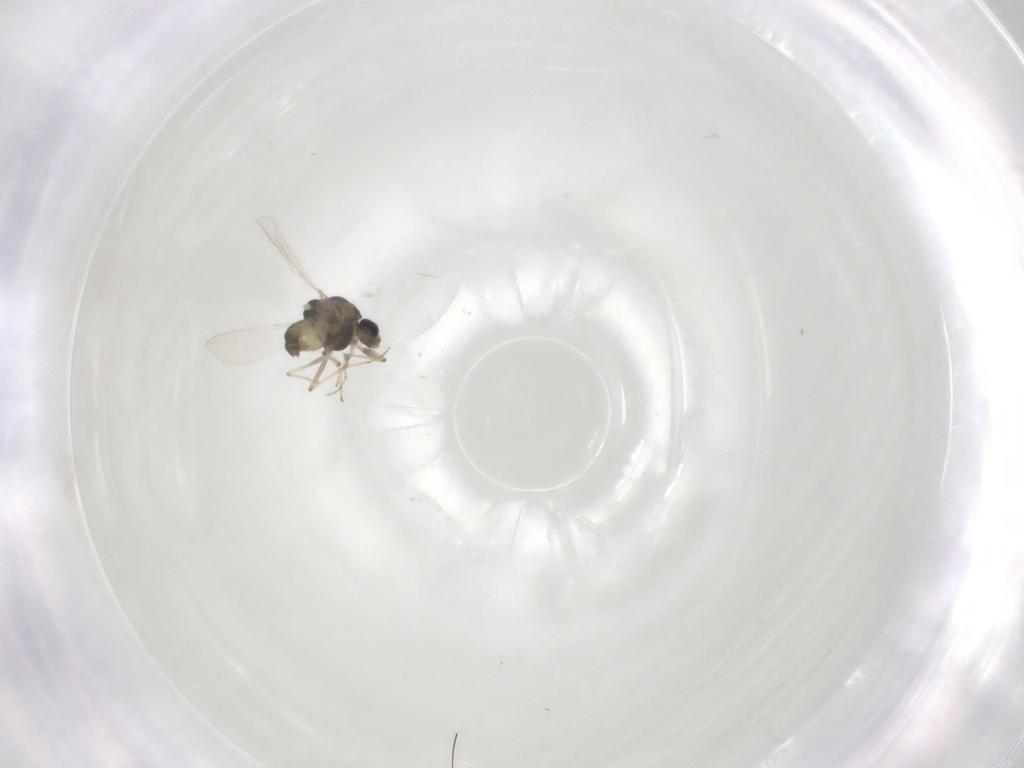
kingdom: Animalia
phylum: Arthropoda
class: Insecta
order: Diptera
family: Chironomidae
